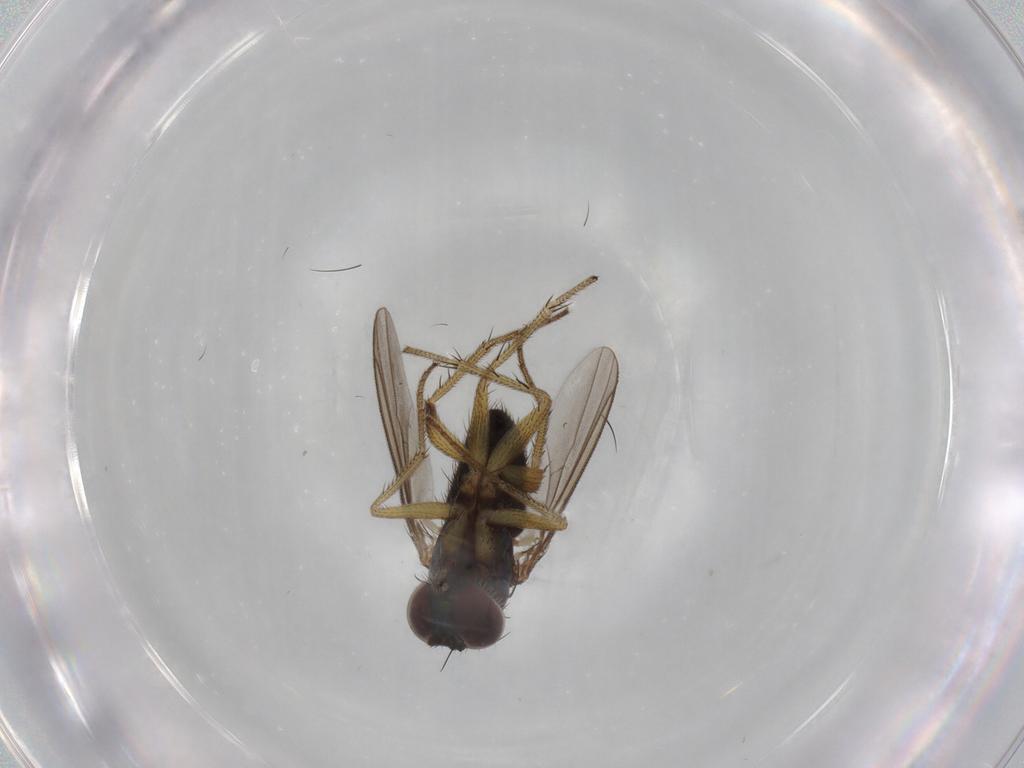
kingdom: Animalia
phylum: Arthropoda
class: Insecta
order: Diptera
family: Dolichopodidae
